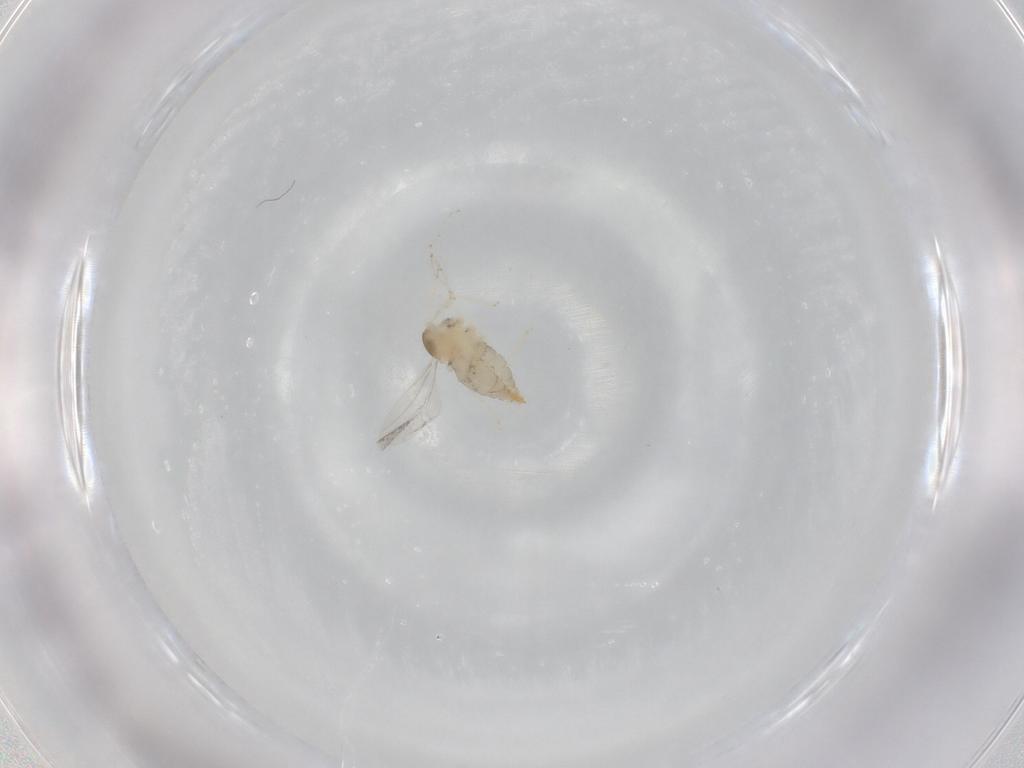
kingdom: Animalia
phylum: Arthropoda
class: Insecta
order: Diptera
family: Cecidomyiidae
